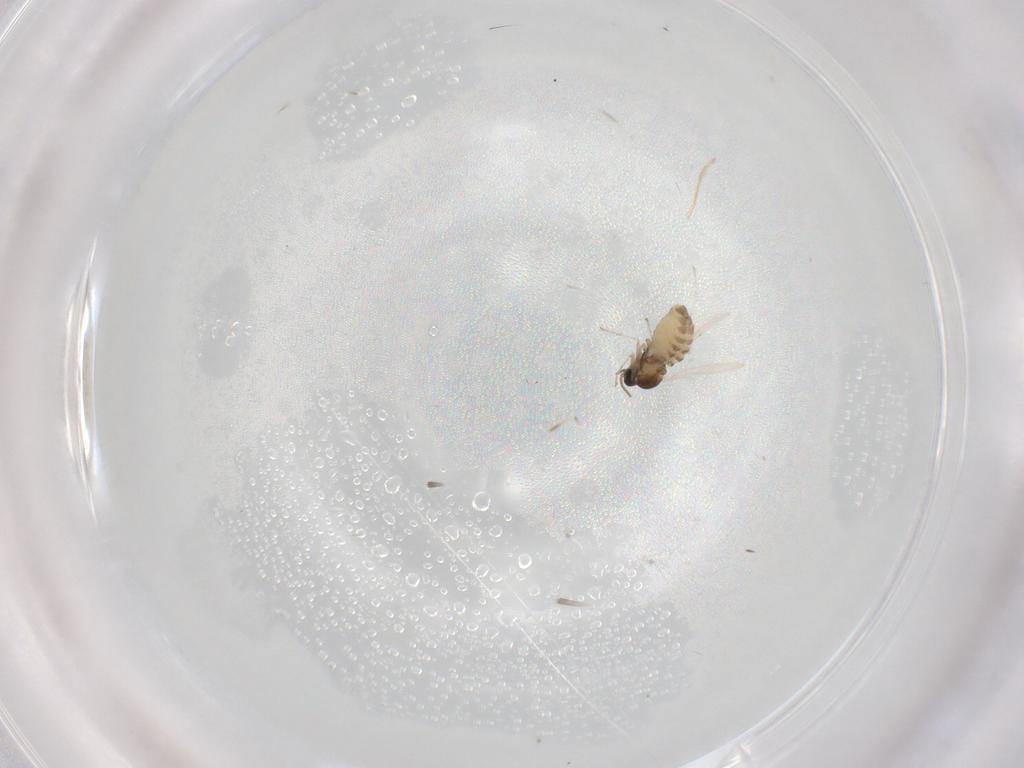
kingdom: Animalia
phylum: Arthropoda
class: Insecta
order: Diptera
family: Cecidomyiidae
